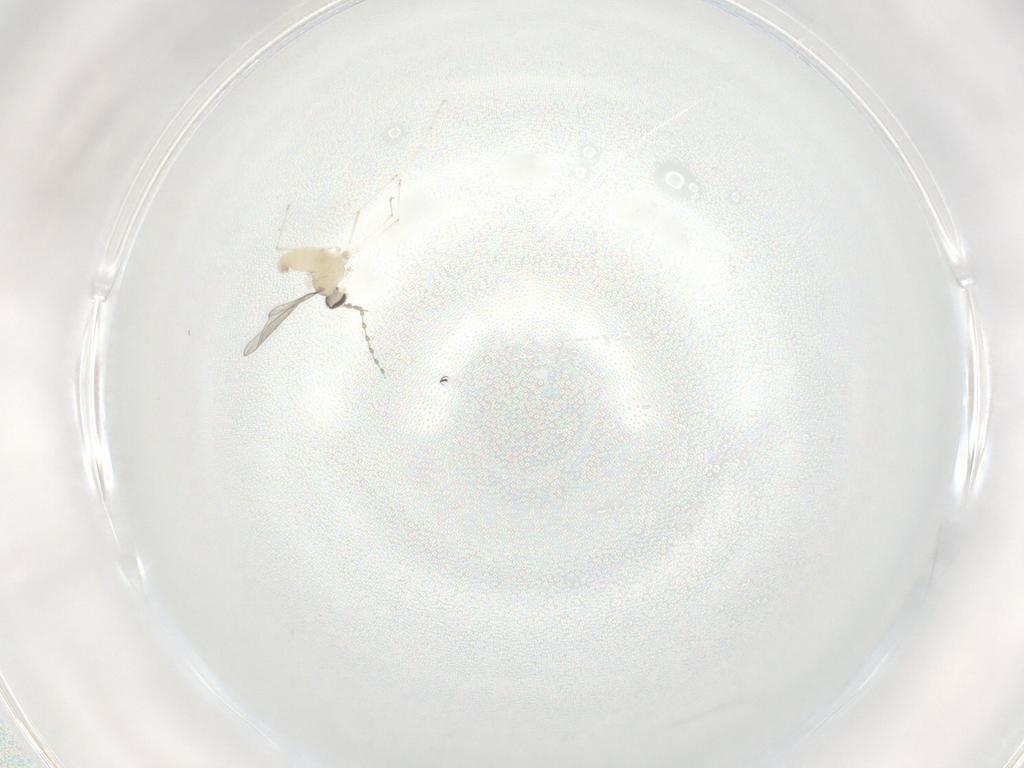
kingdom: Animalia
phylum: Arthropoda
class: Insecta
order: Diptera
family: Cecidomyiidae
